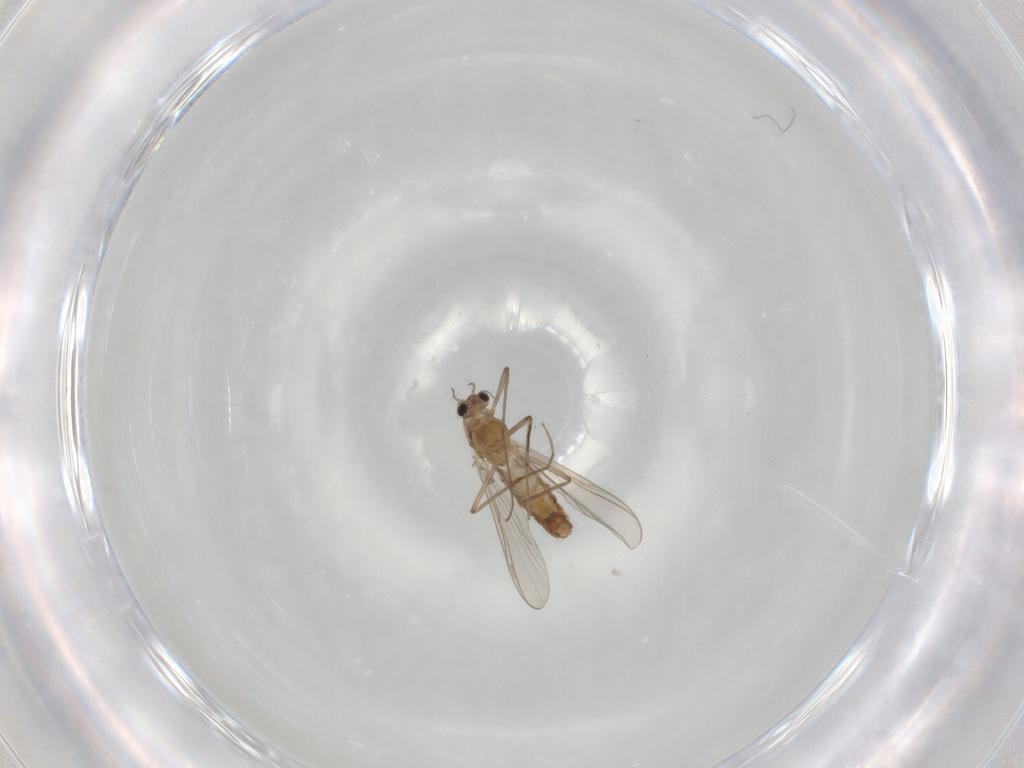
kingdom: Animalia
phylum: Arthropoda
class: Insecta
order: Diptera
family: Chironomidae
